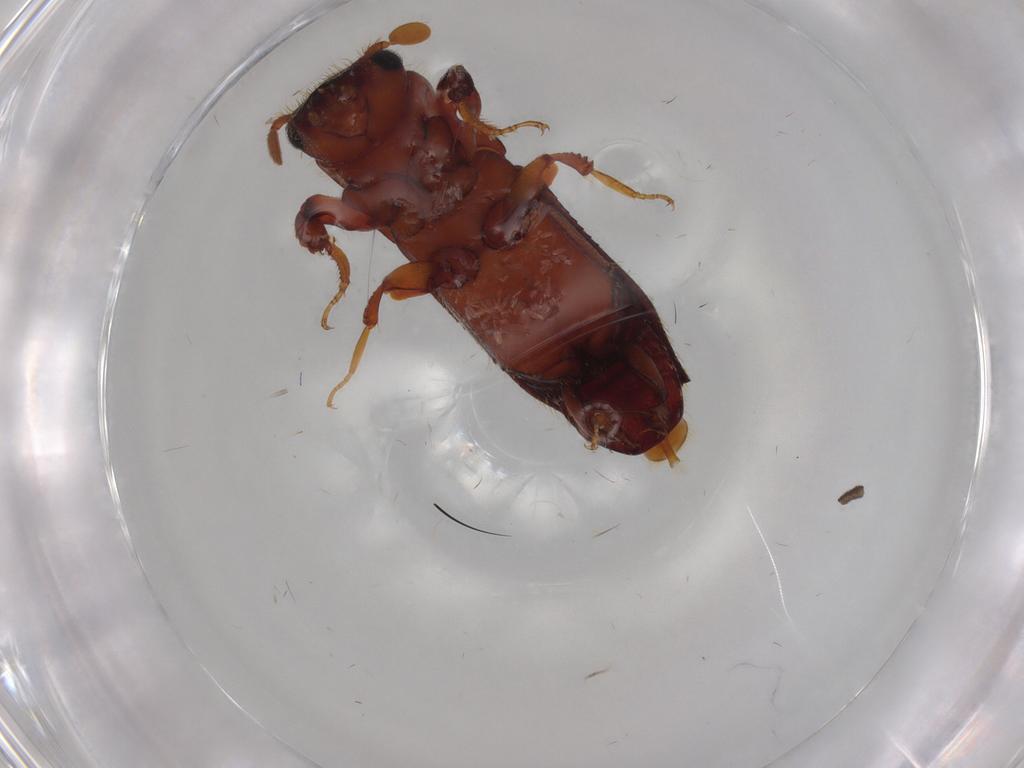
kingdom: Animalia
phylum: Arthropoda
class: Insecta
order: Coleoptera
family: Curculionidae
